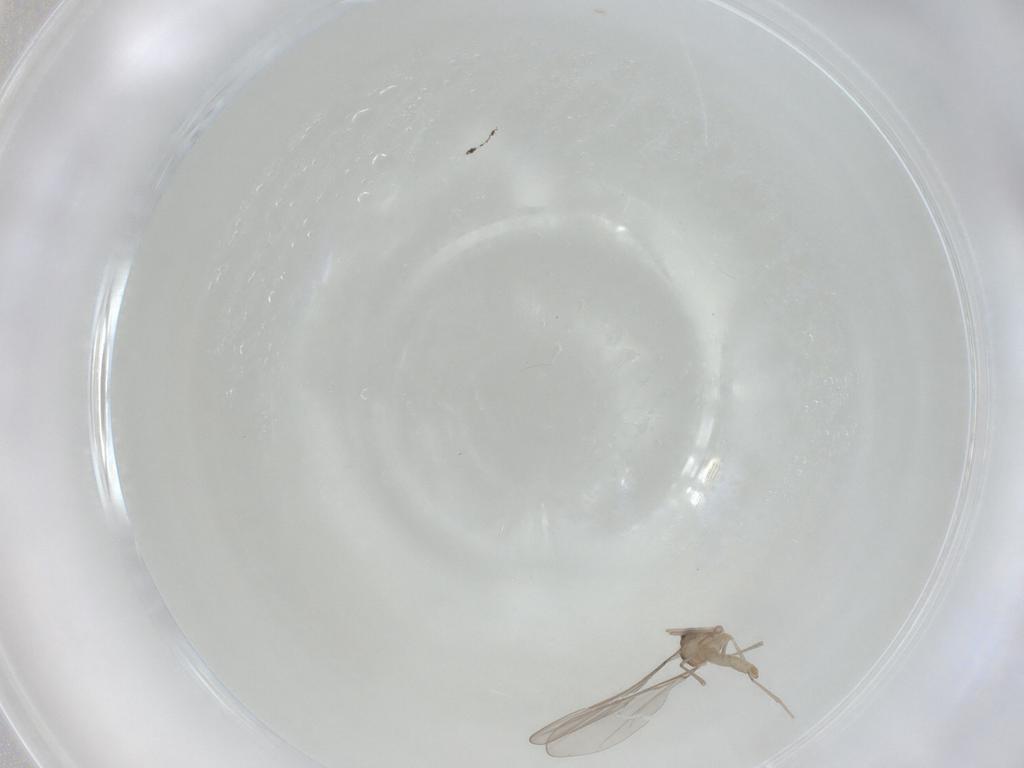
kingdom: Animalia
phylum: Arthropoda
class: Insecta
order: Diptera
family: Cecidomyiidae
